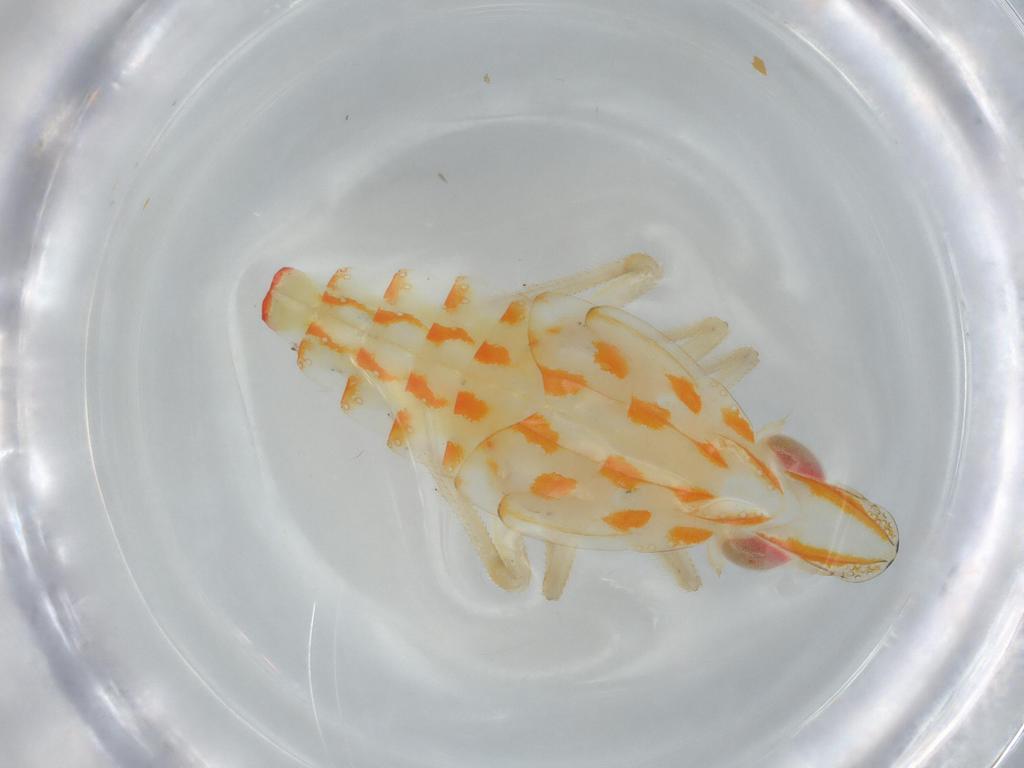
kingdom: Animalia
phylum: Arthropoda
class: Insecta
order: Hemiptera
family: Tropiduchidae
